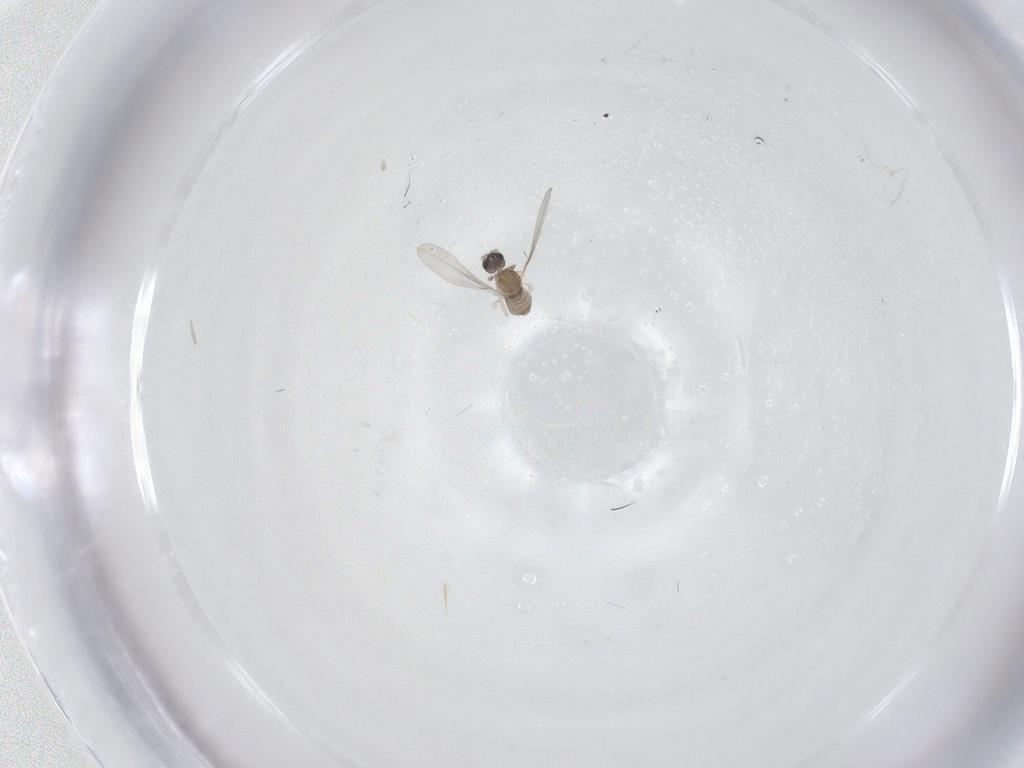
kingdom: Animalia
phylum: Arthropoda
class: Insecta
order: Diptera
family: Cecidomyiidae
